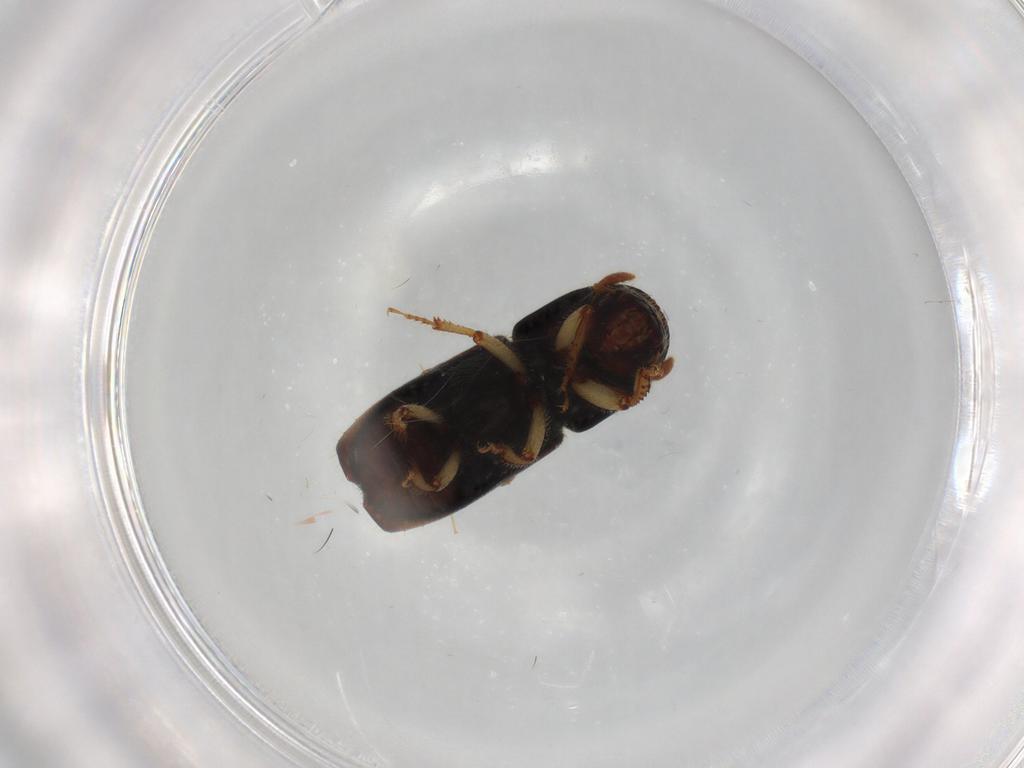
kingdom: Animalia
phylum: Arthropoda
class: Insecta
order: Coleoptera
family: Curculionidae
